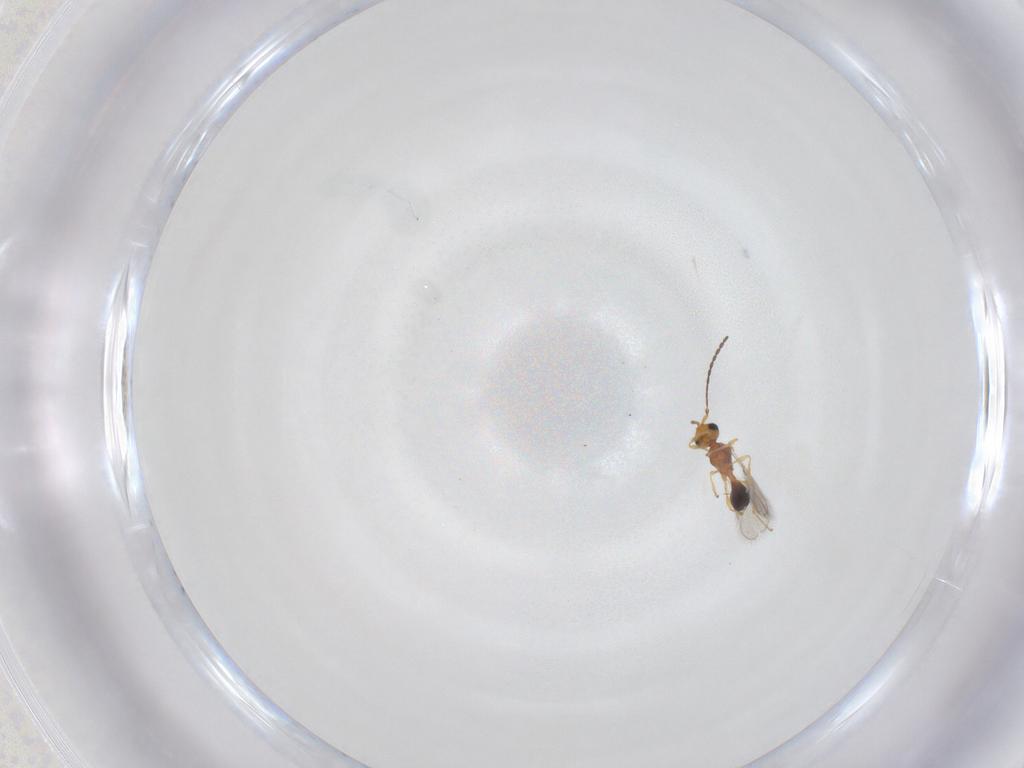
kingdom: Animalia
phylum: Arthropoda
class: Insecta
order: Hymenoptera
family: Diapriidae
